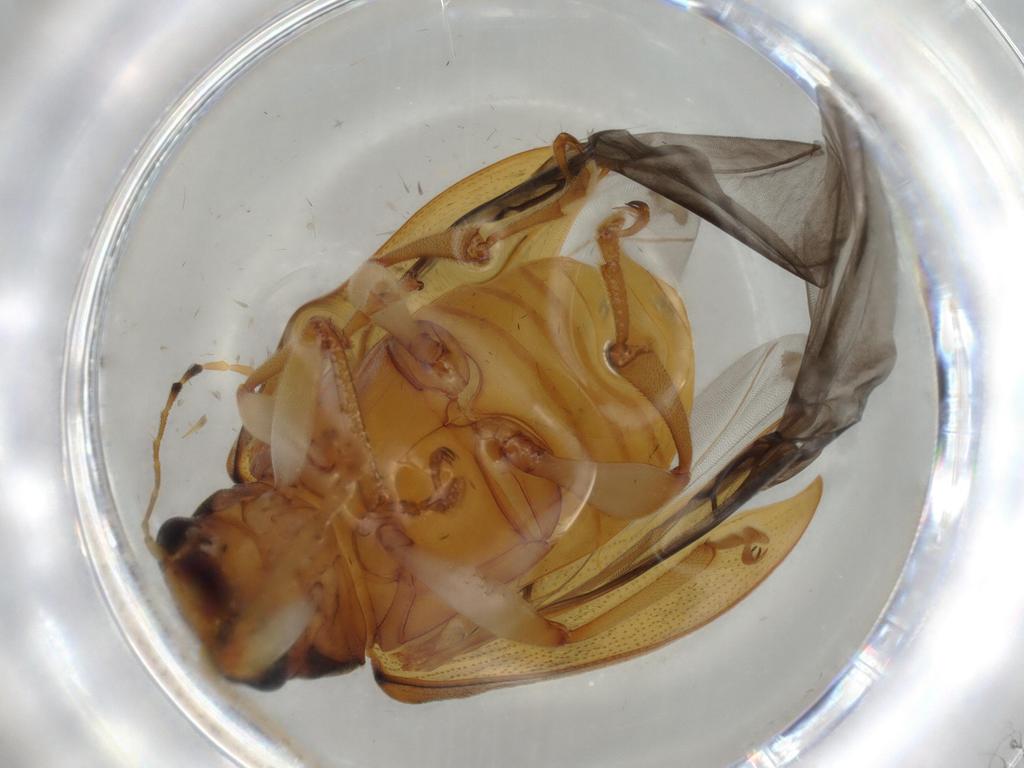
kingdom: Animalia
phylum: Arthropoda
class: Insecta
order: Coleoptera
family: Chrysomelidae
